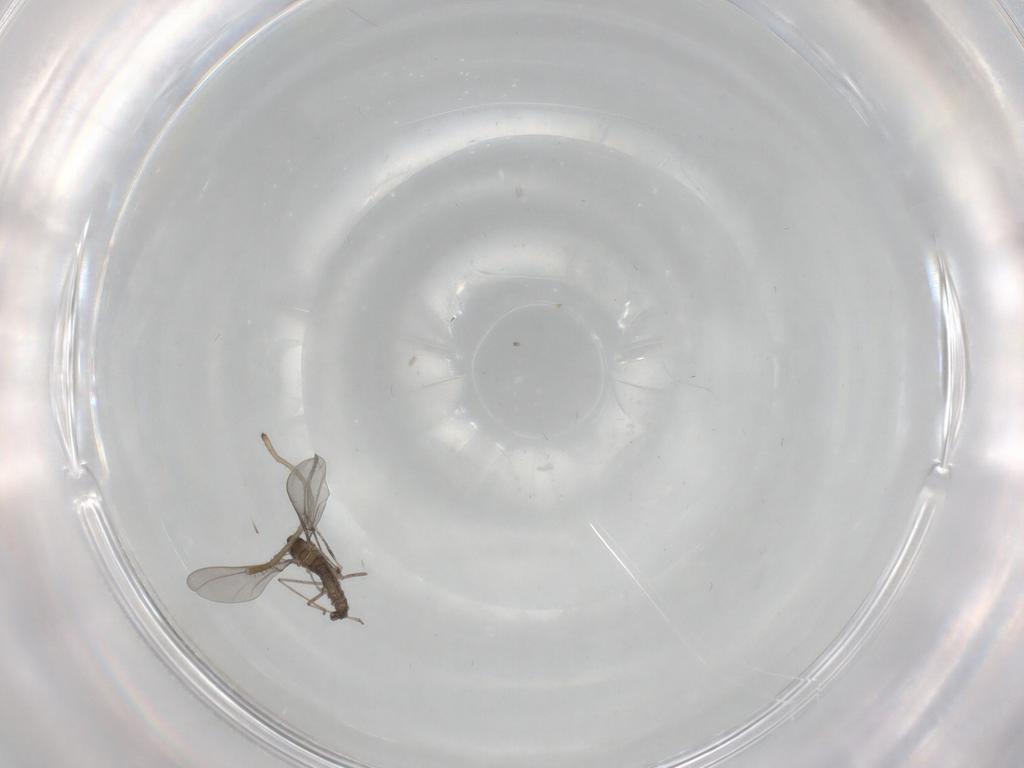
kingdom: Animalia
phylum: Arthropoda
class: Insecta
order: Diptera
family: Cecidomyiidae
